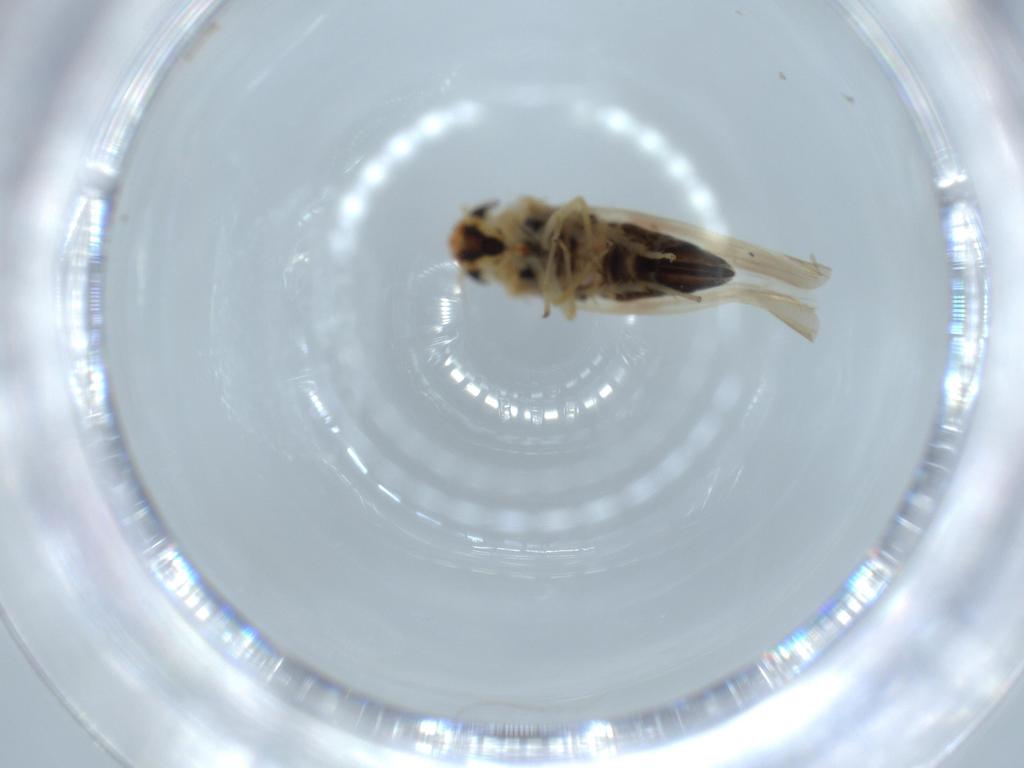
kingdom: Animalia
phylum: Arthropoda
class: Insecta
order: Hemiptera
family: Cicadellidae
